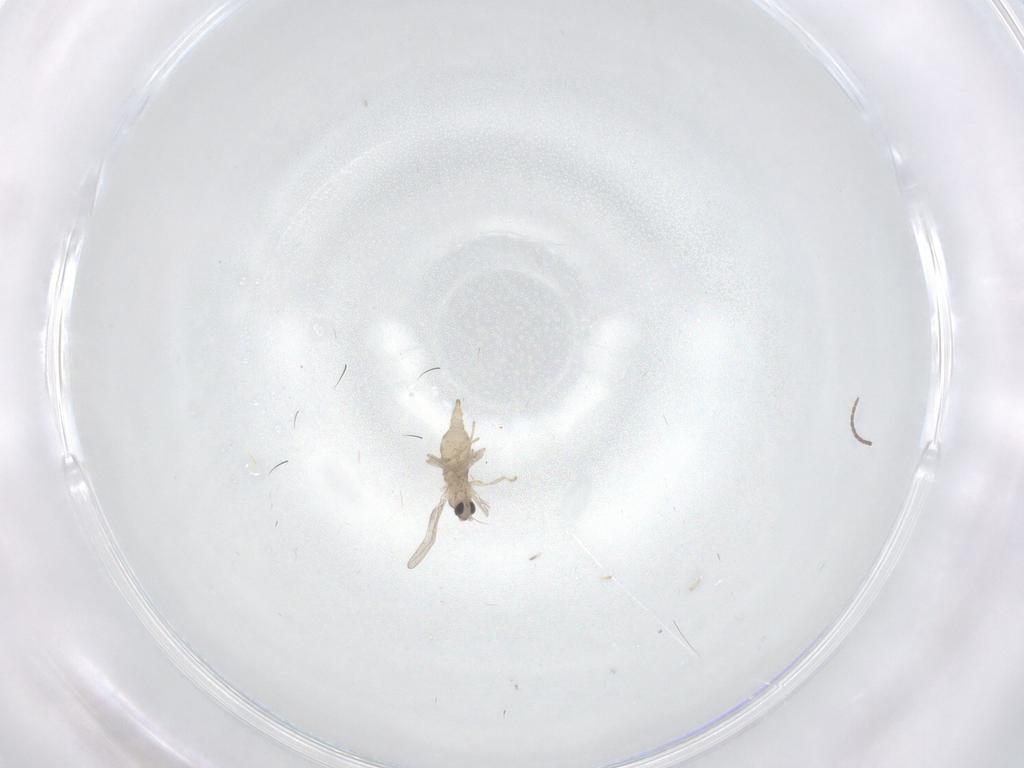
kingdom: Animalia
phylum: Arthropoda
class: Insecta
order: Diptera
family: Cecidomyiidae
